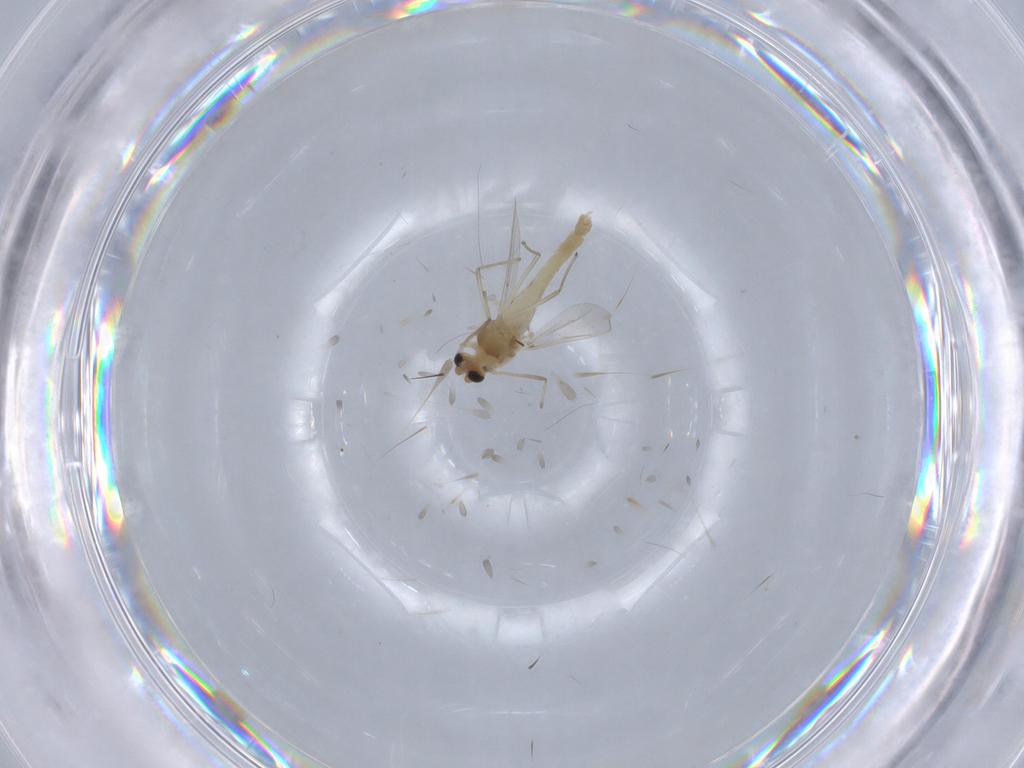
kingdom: Animalia
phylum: Arthropoda
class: Insecta
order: Diptera
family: Chironomidae
